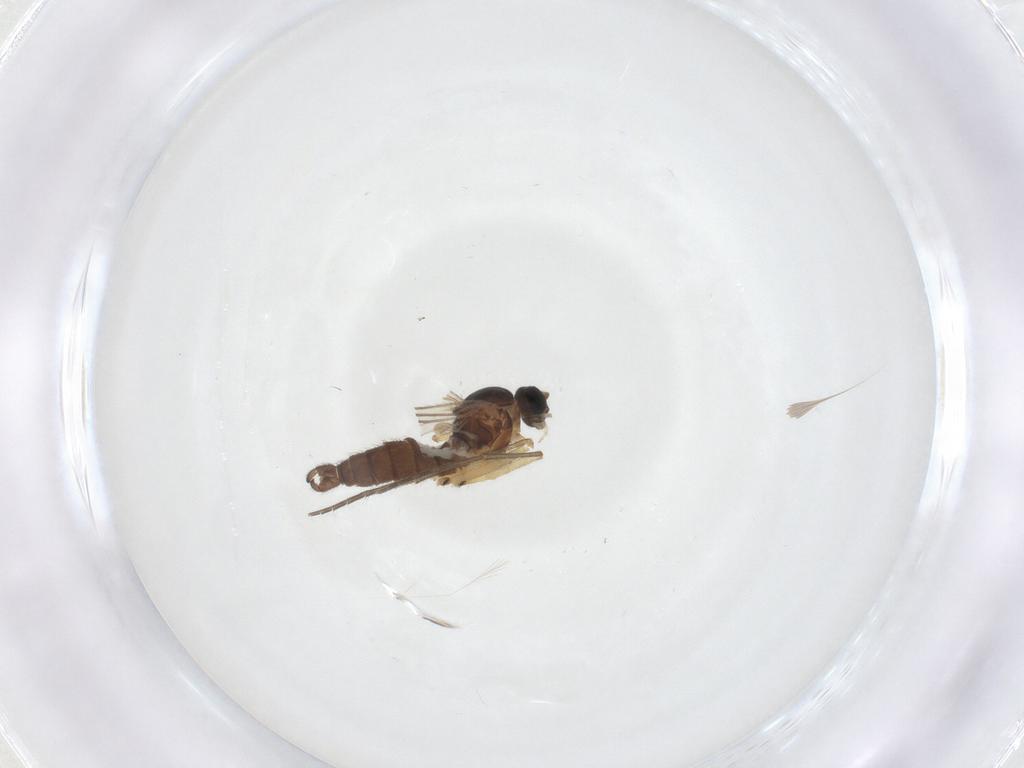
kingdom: Animalia
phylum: Arthropoda
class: Insecta
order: Diptera
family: Sciaridae
